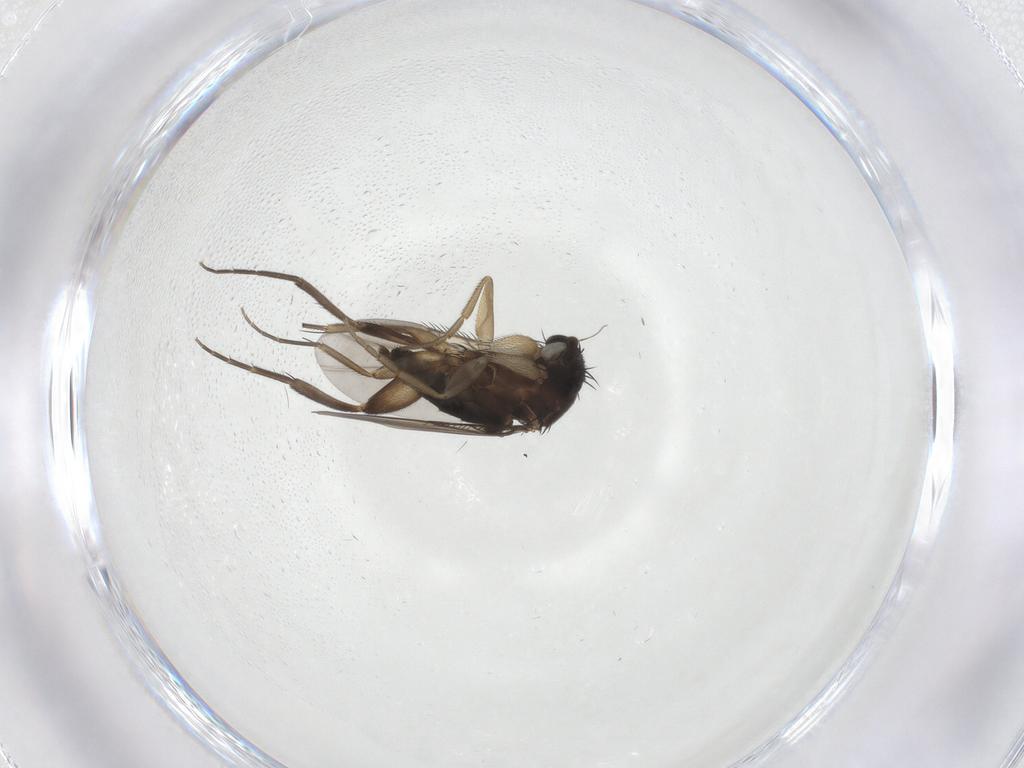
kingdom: Animalia
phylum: Arthropoda
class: Insecta
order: Diptera
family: Phoridae
